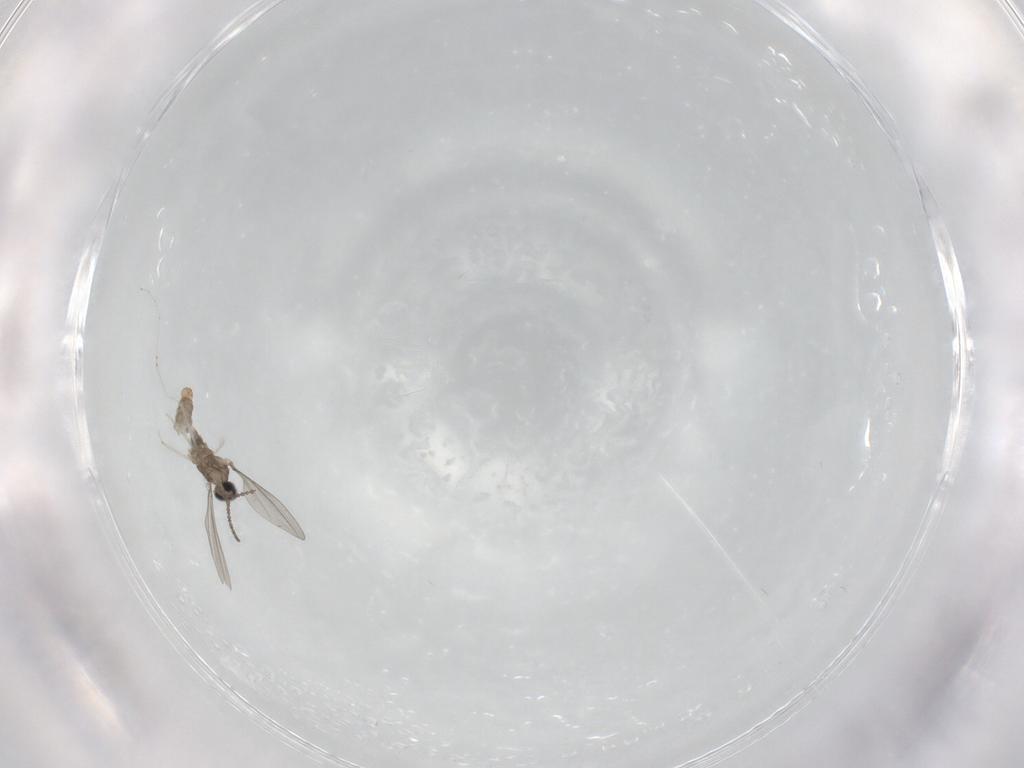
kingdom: Animalia
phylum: Arthropoda
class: Insecta
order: Diptera
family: Cecidomyiidae
